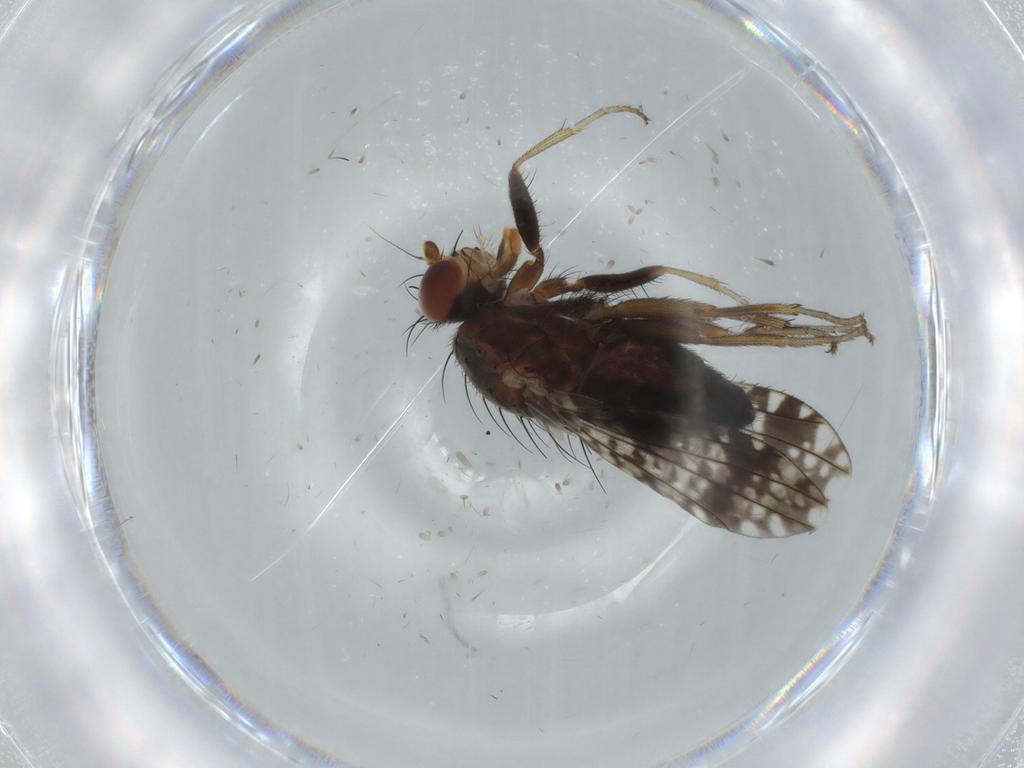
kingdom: Animalia
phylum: Arthropoda
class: Insecta
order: Diptera
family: Tephritidae
